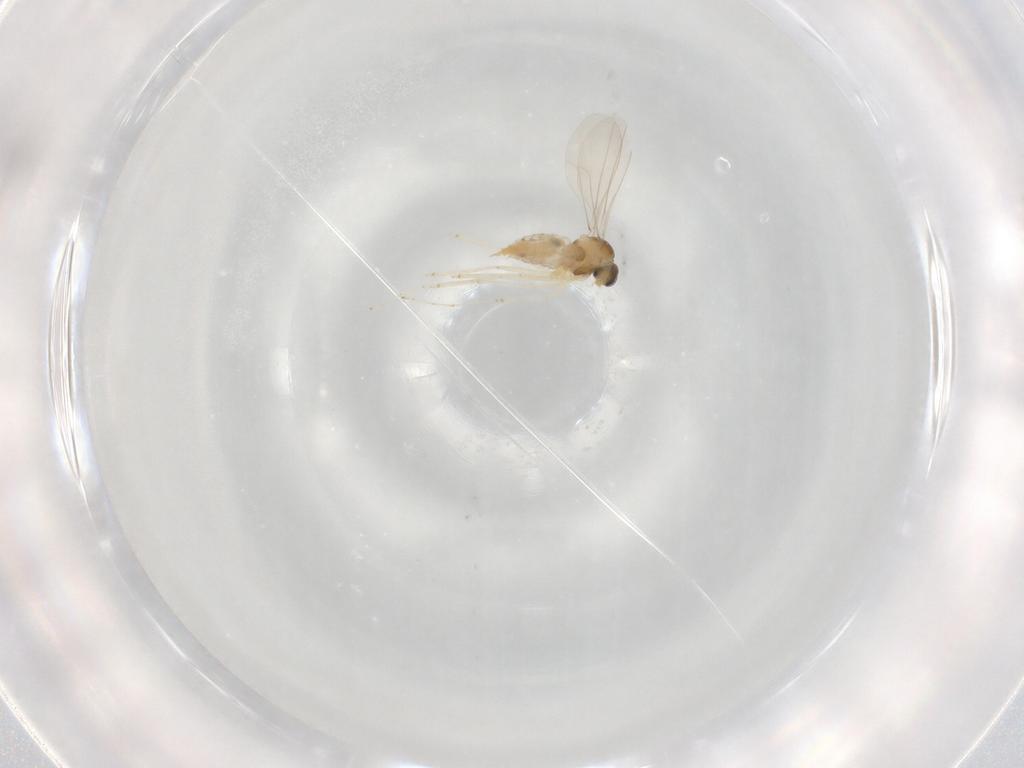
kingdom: Animalia
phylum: Arthropoda
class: Insecta
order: Diptera
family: Cecidomyiidae
